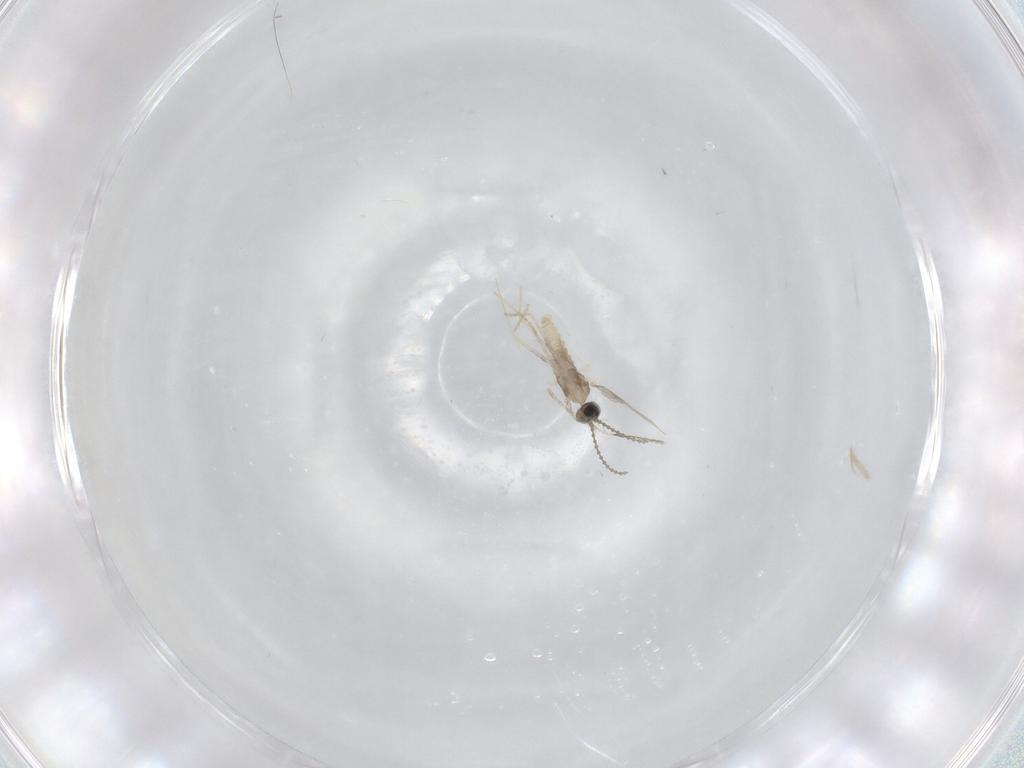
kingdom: Animalia
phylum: Arthropoda
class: Insecta
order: Diptera
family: Cecidomyiidae
